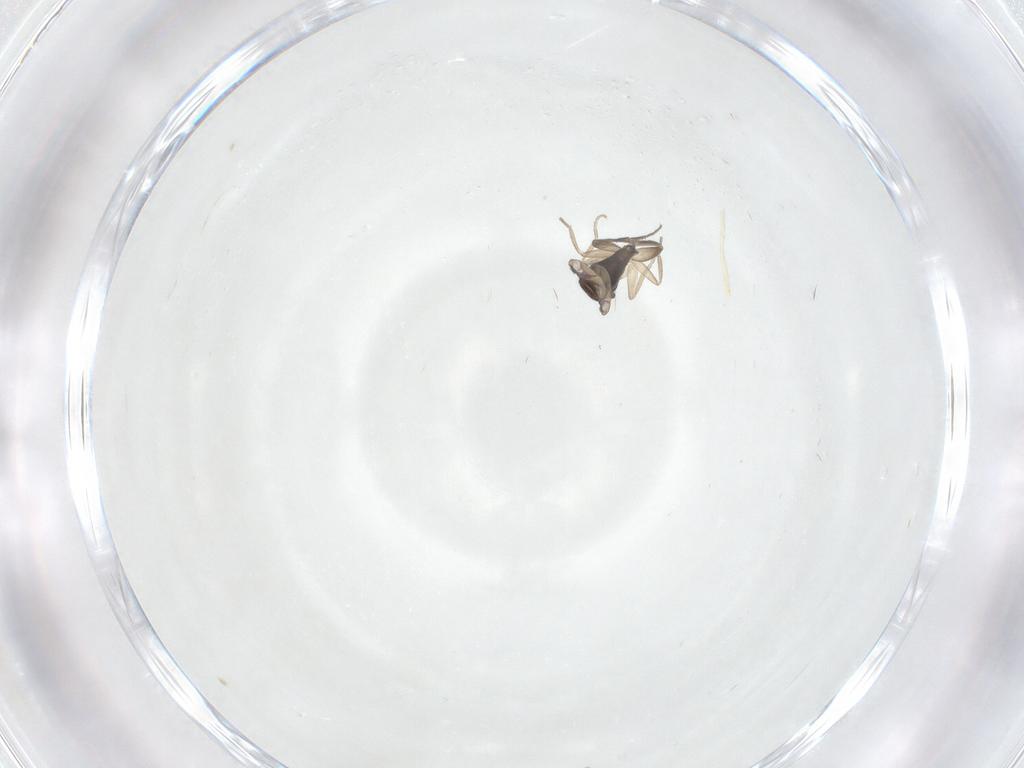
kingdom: Animalia
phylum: Arthropoda
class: Insecta
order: Diptera
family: Phoridae
